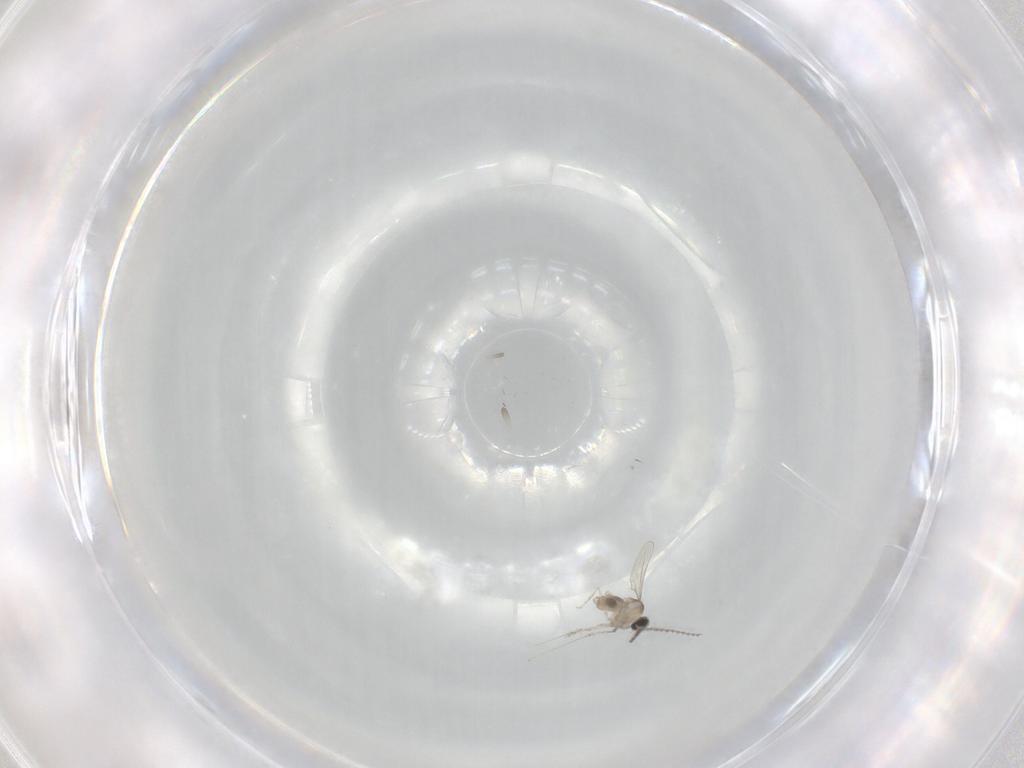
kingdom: Animalia
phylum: Arthropoda
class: Insecta
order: Diptera
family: Cecidomyiidae
